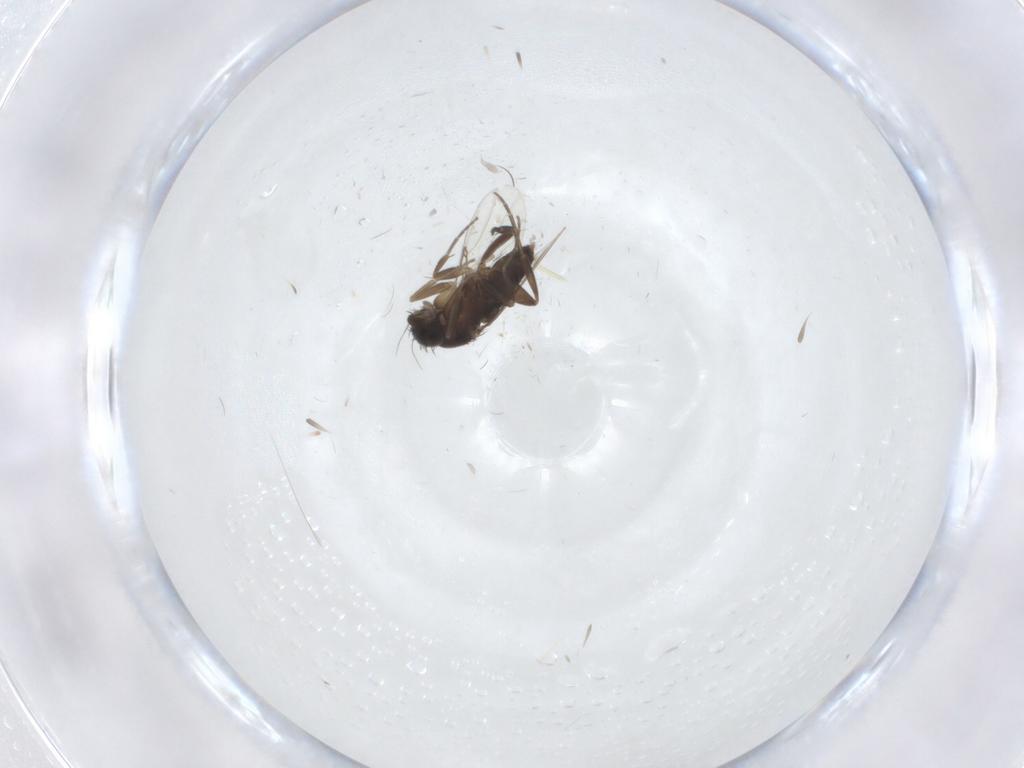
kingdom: Animalia
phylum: Arthropoda
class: Insecta
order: Diptera
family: Phoridae
